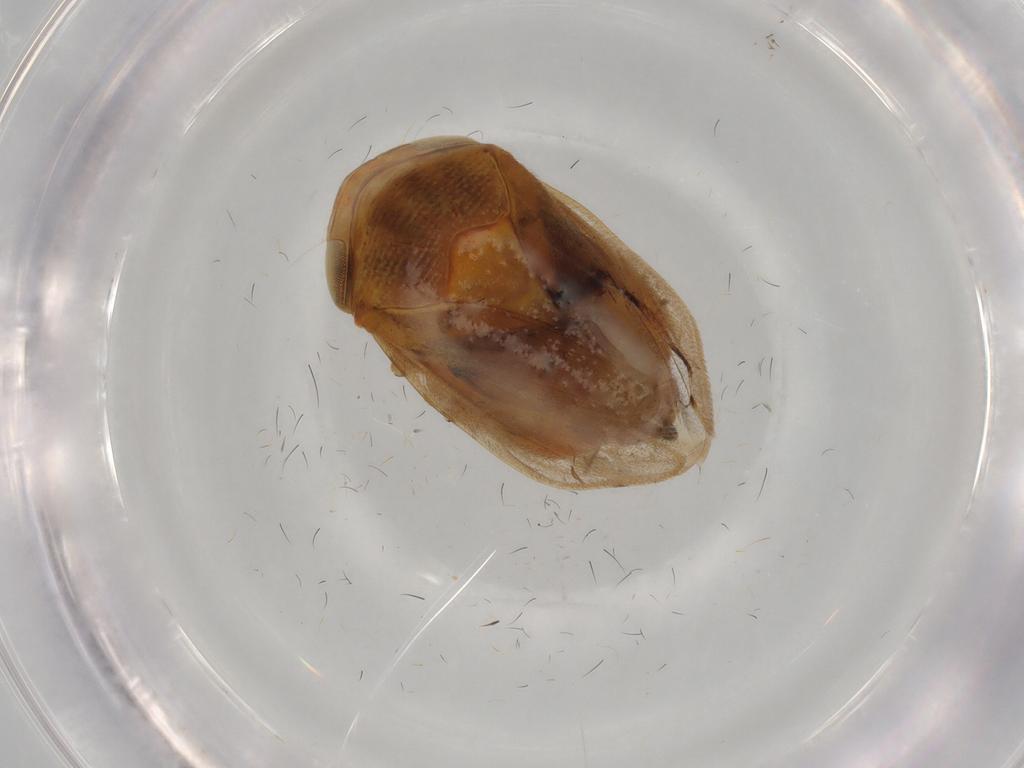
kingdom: Animalia
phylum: Arthropoda
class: Insecta
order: Hemiptera
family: Clastopteridae
